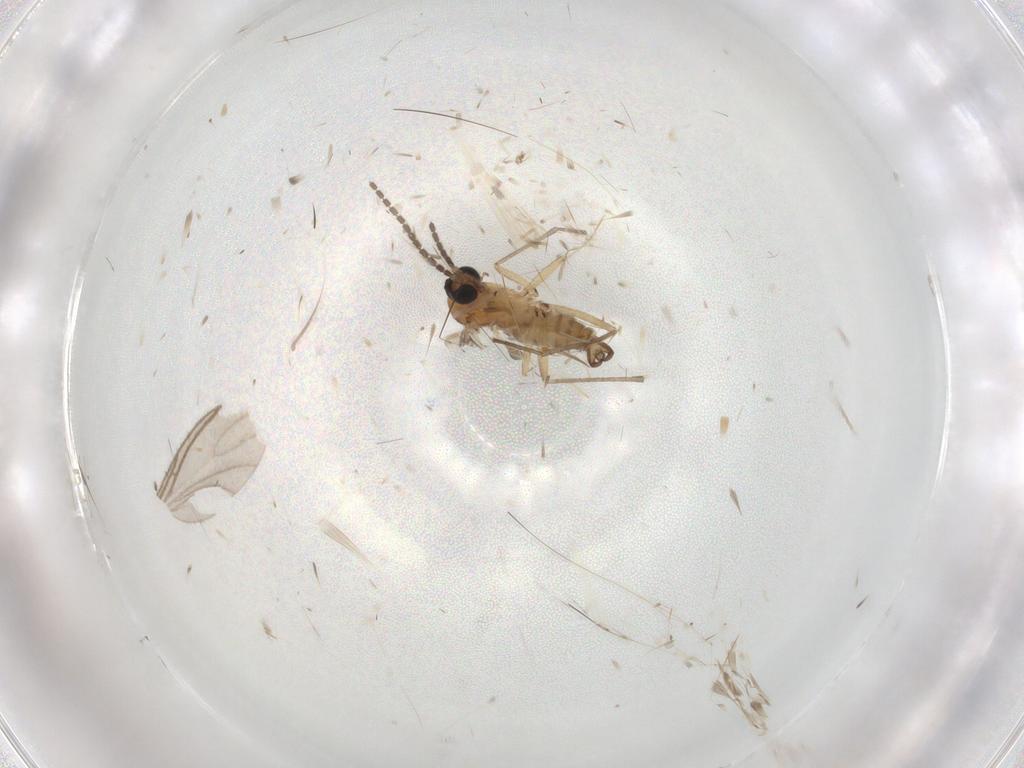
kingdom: Animalia
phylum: Arthropoda
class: Insecta
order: Diptera
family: Sciaridae
